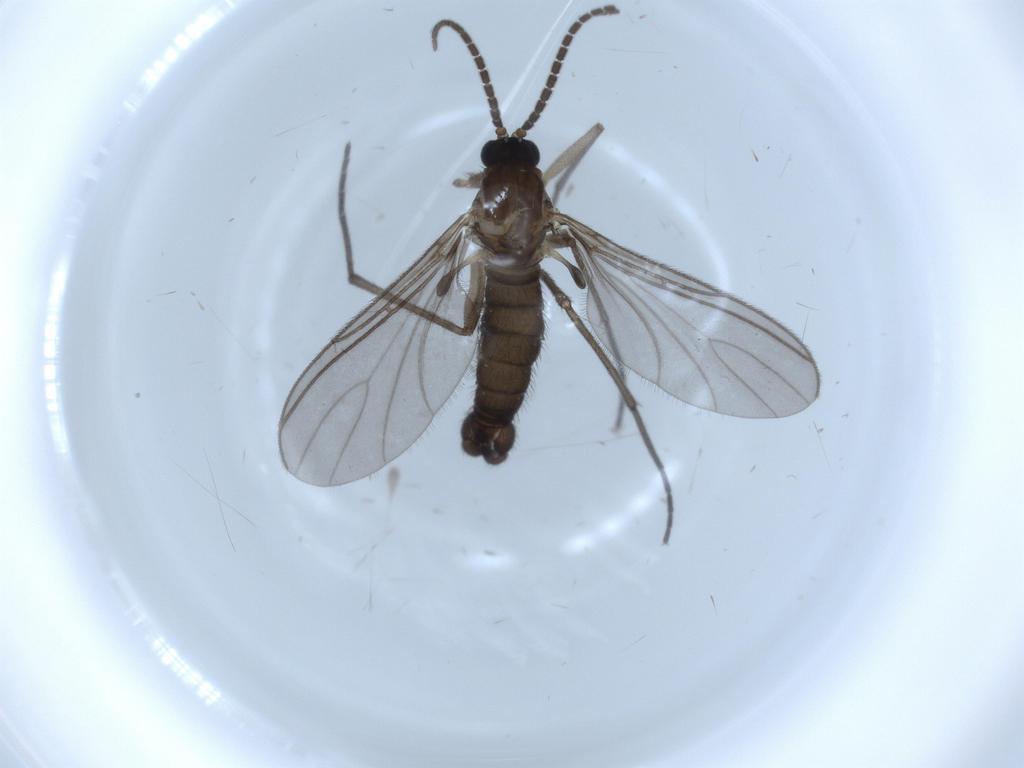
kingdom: Animalia
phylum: Arthropoda
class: Insecta
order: Diptera
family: Sciaridae
